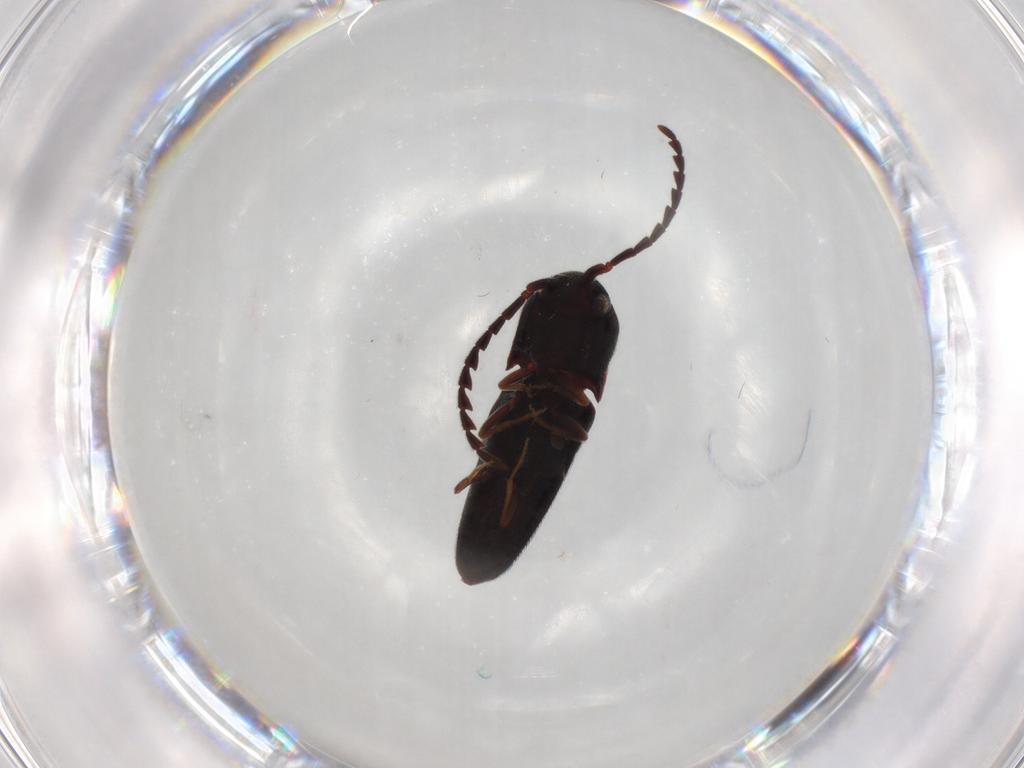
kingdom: Animalia
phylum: Arthropoda
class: Insecta
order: Coleoptera
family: Eucnemidae
